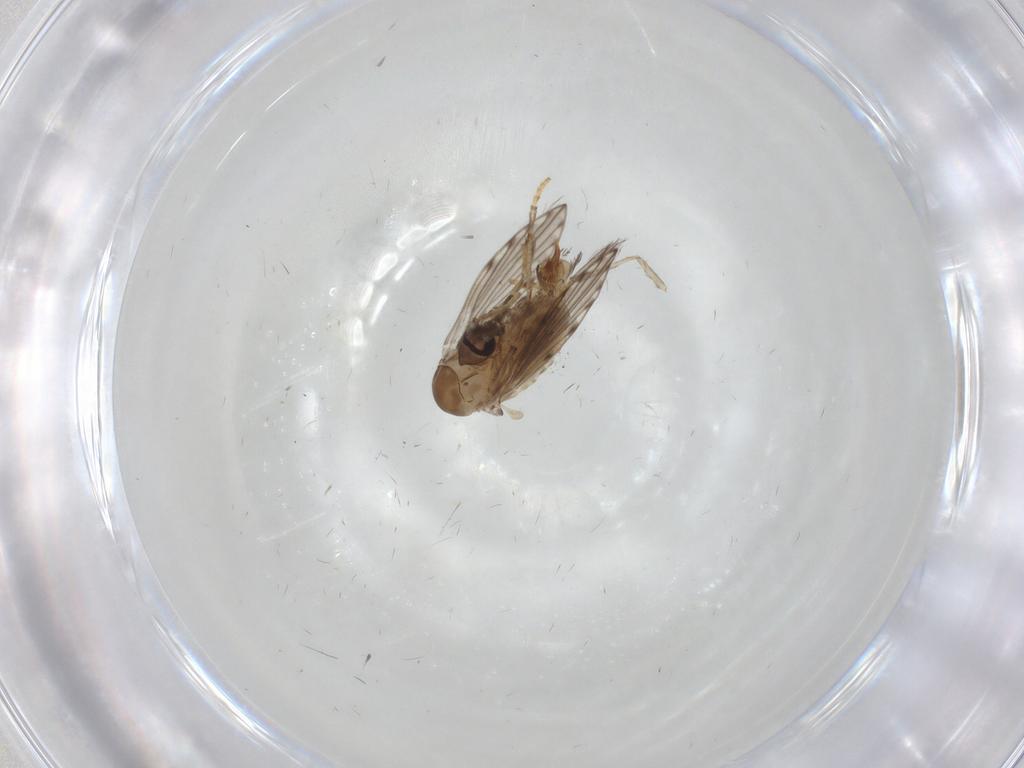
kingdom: Animalia
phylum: Arthropoda
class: Insecta
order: Diptera
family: Psychodidae
